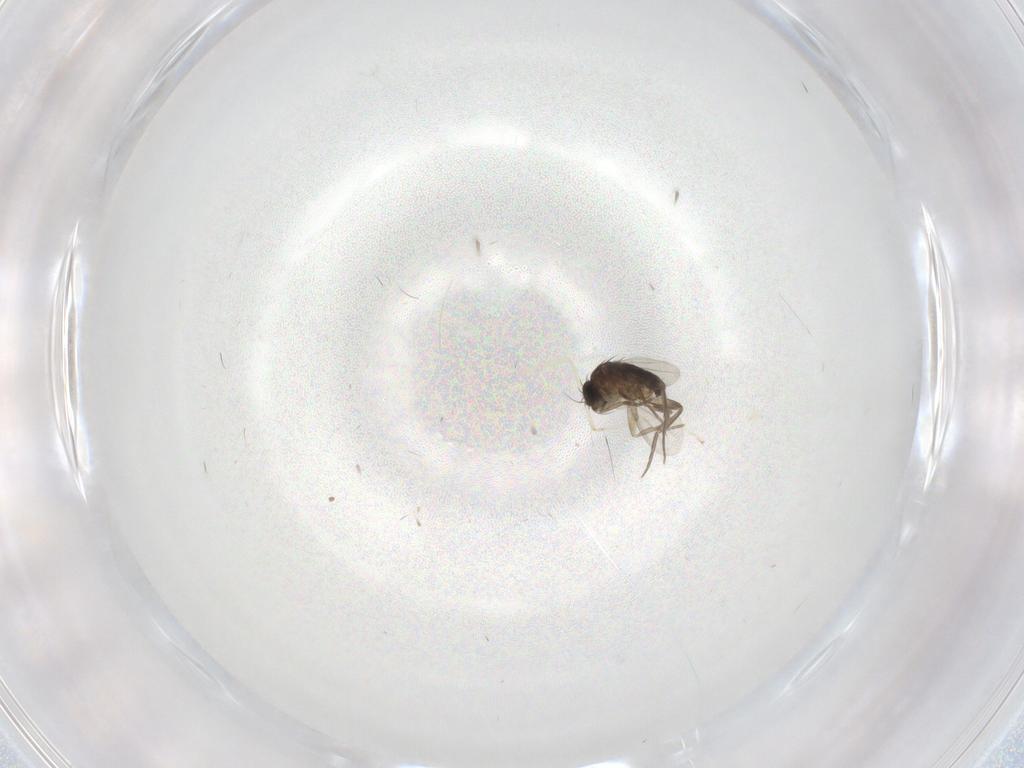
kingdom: Animalia
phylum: Arthropoda
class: Insecta
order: Diptera
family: Phoridae
